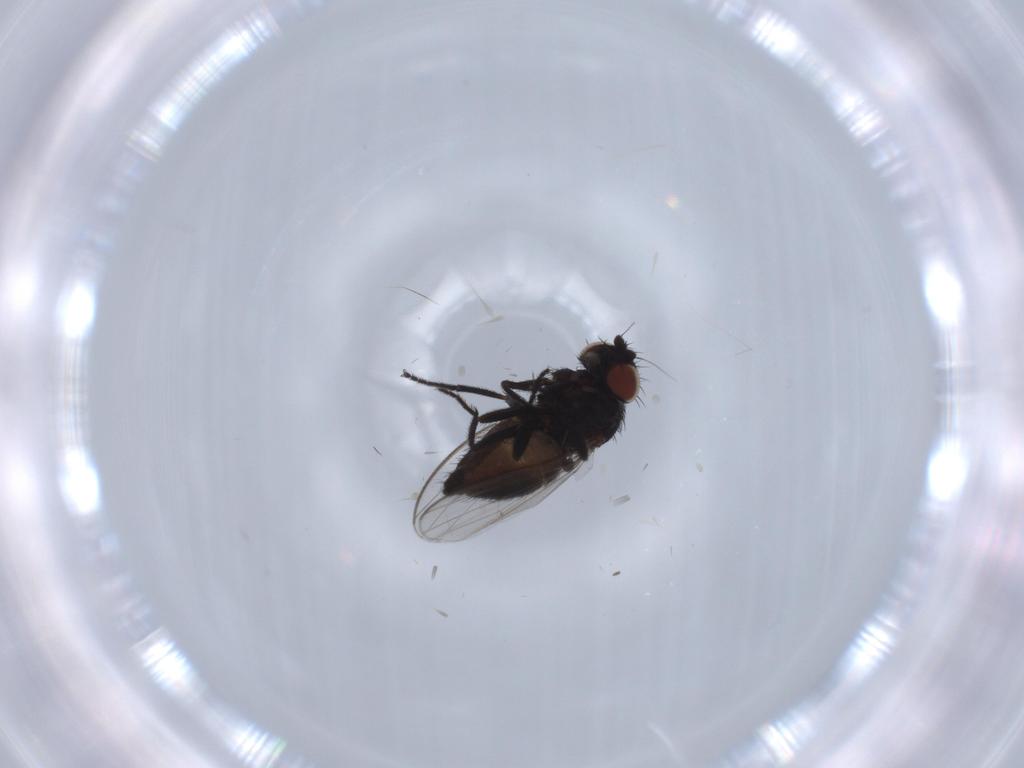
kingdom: Animalia
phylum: Arthropoda
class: Insecta
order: Diptera
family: Milichiidae
